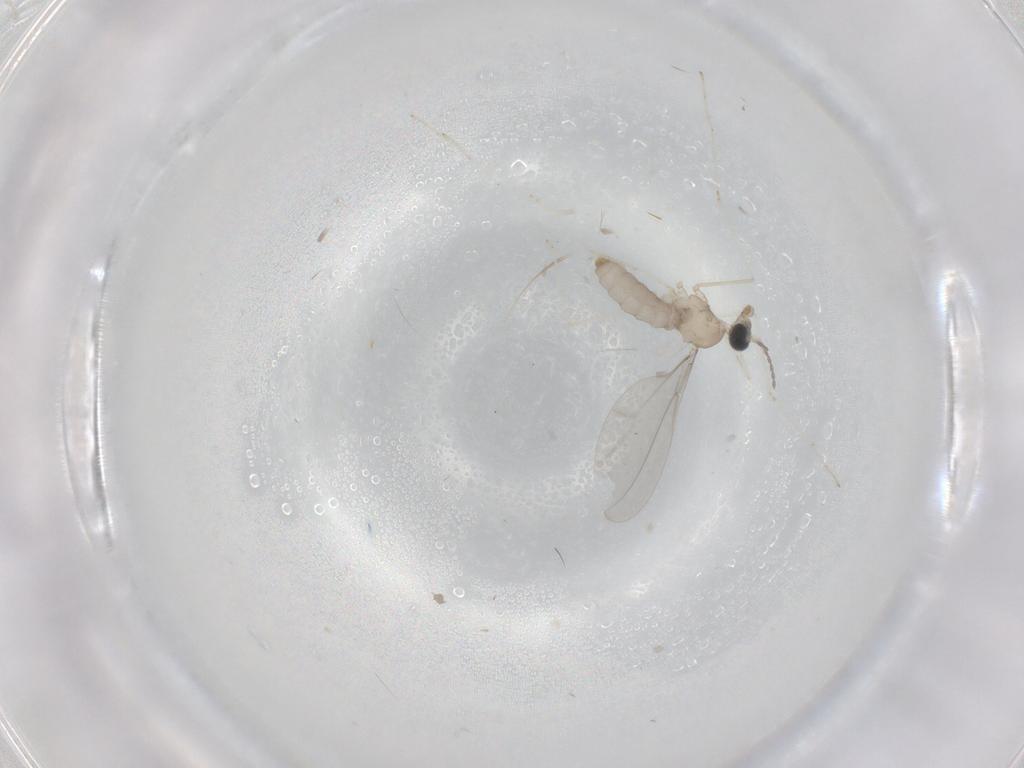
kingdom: Animalia
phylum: Arthropoda
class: Insecta
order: Diptera
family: Cecidomyiidae
